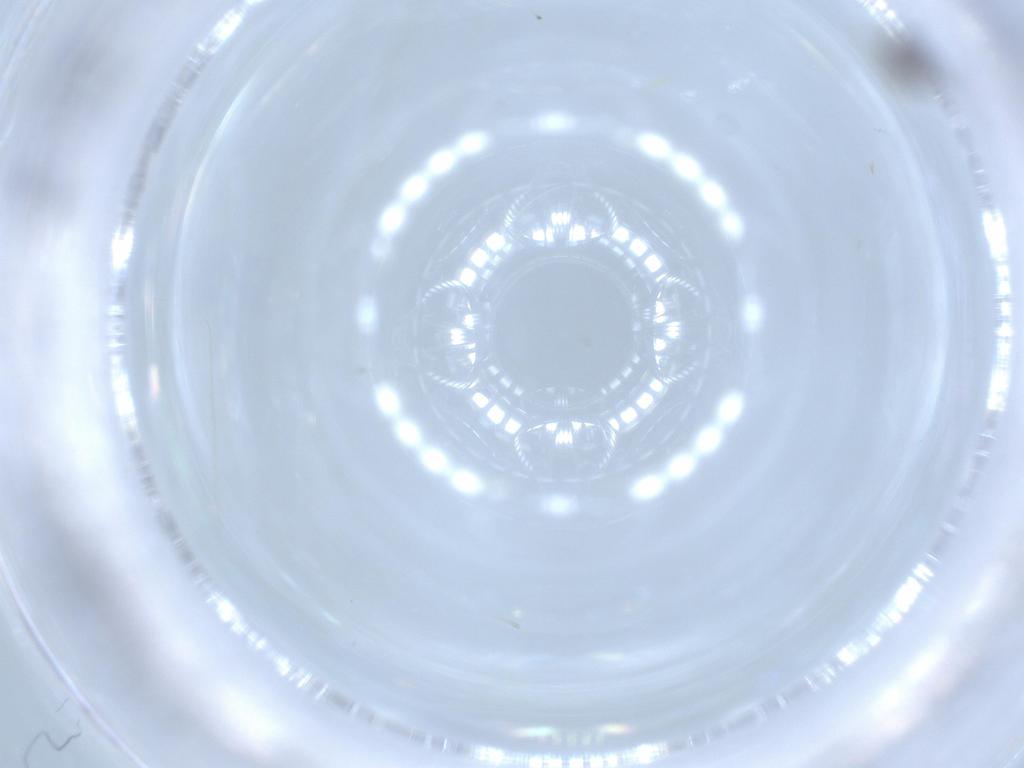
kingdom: Animalia
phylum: Arthropoda
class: Insecta
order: Diptera
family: Chironomidae
